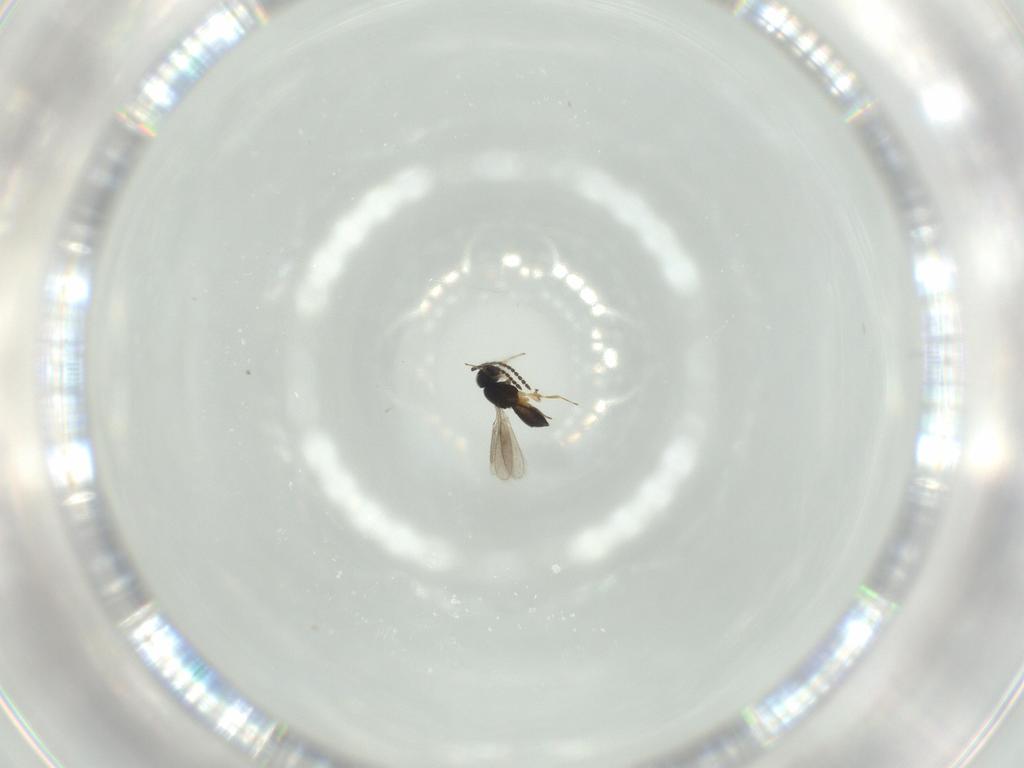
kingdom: Animalia
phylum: Arthropoda
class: Insecta
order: Hymenoptera
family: Scelionidae
